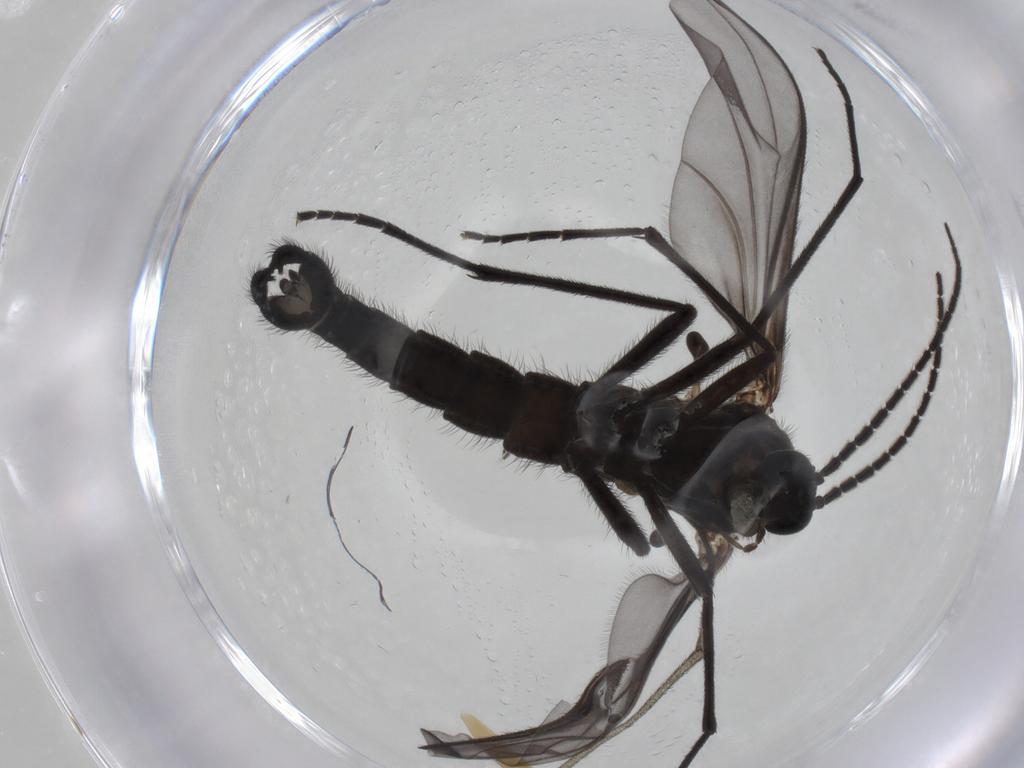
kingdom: Animalia
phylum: Arthropoda
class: Insecta
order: Diptera
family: Sciaridae
